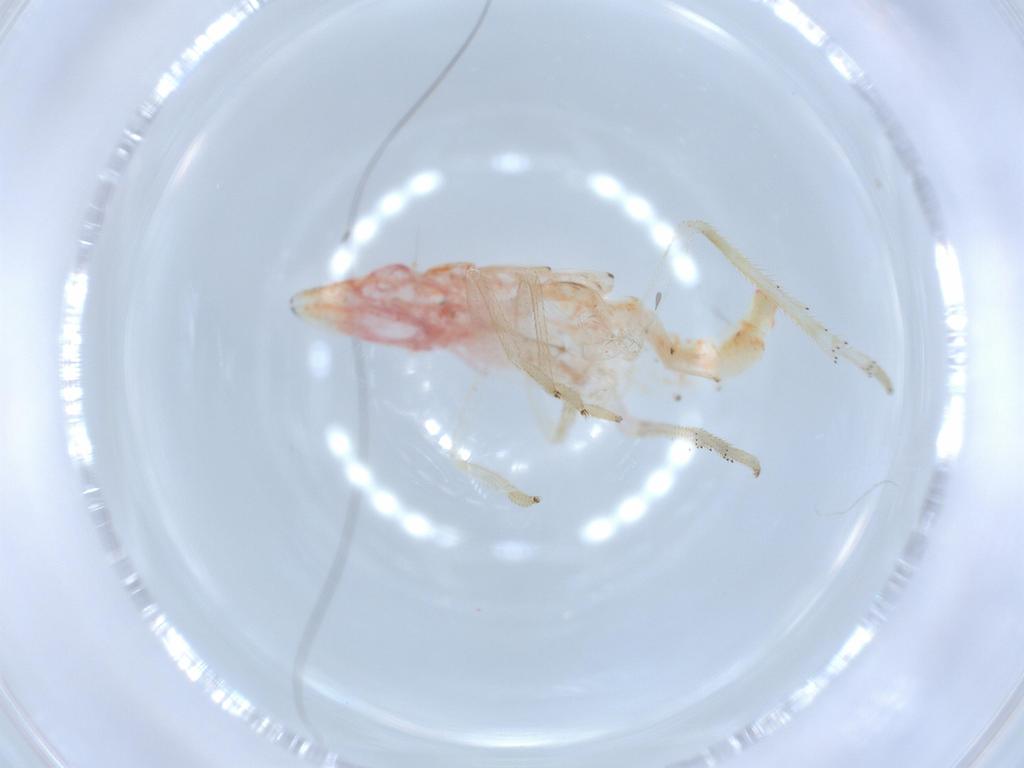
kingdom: Animalia
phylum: Arthropoda
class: Insecta
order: Hemiptera
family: Tropiduchidae
